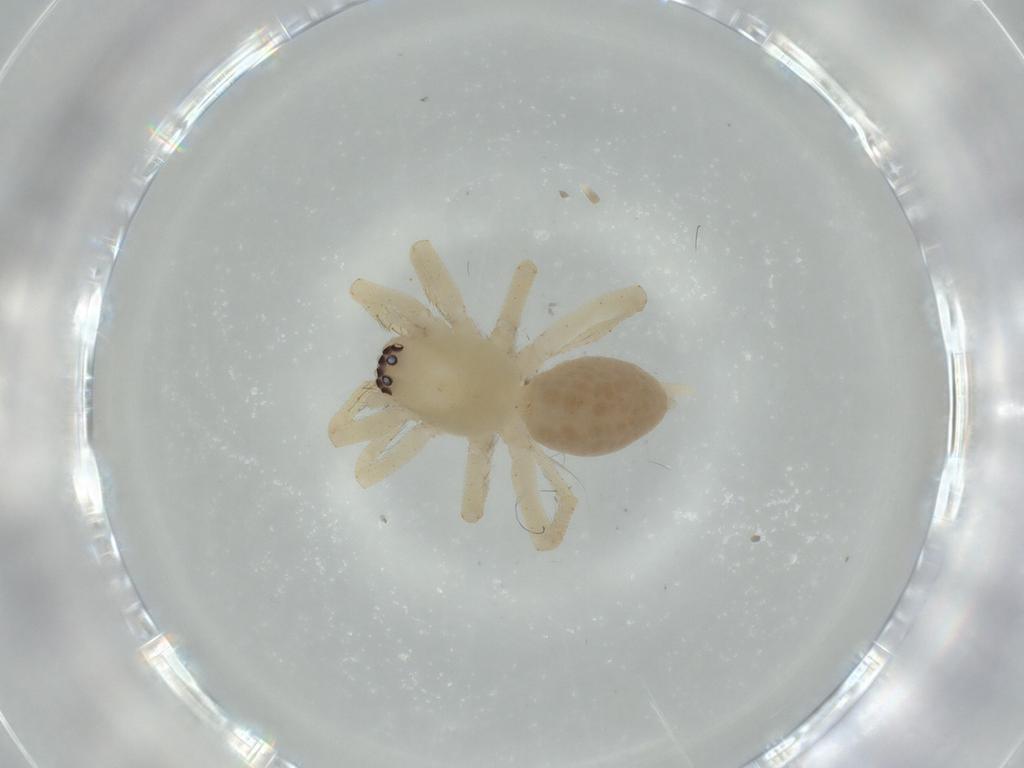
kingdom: Animalia
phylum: Arthropoda
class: Arachnida
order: Araneae
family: Linyphiidae
